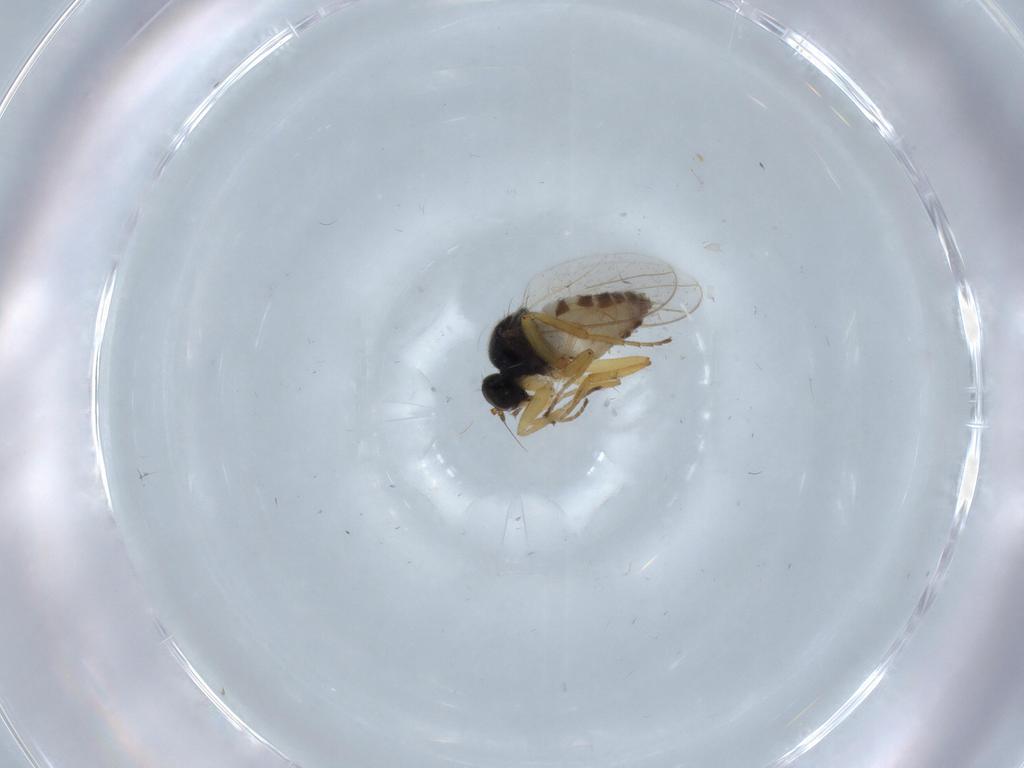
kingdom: Animalia
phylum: Arthropoda
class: Insecta
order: Diptera
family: Hybotidae
